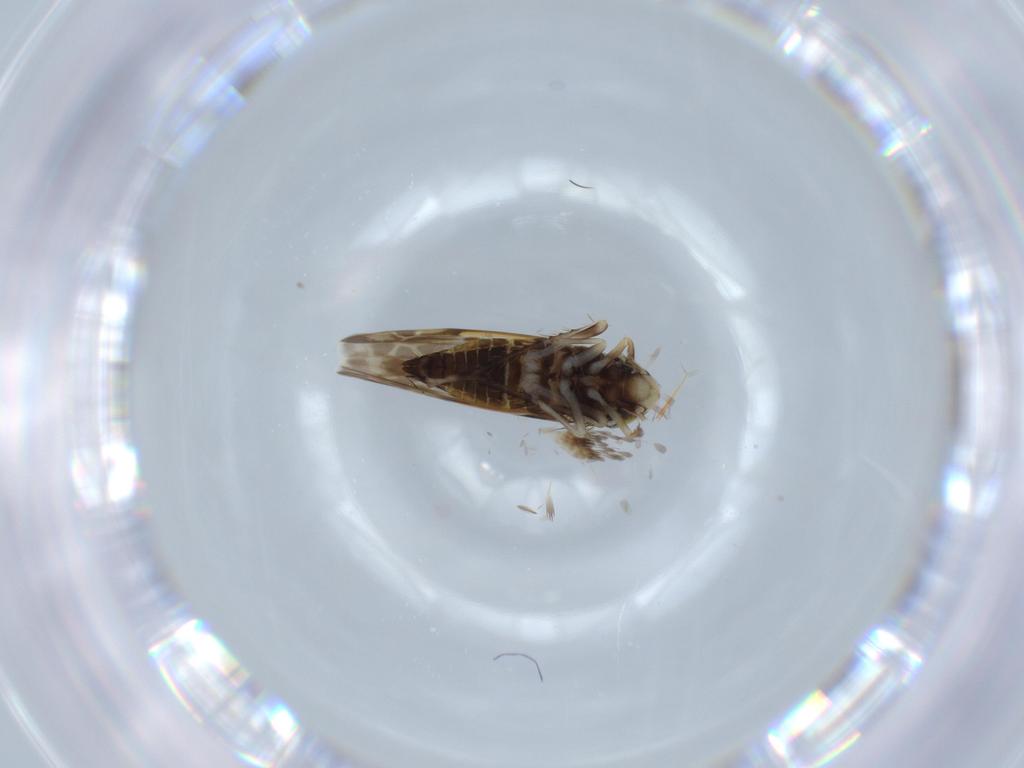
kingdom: Animalia
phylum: Arthropoda
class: Insecta
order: Hemiptera
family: Cicadellidae
